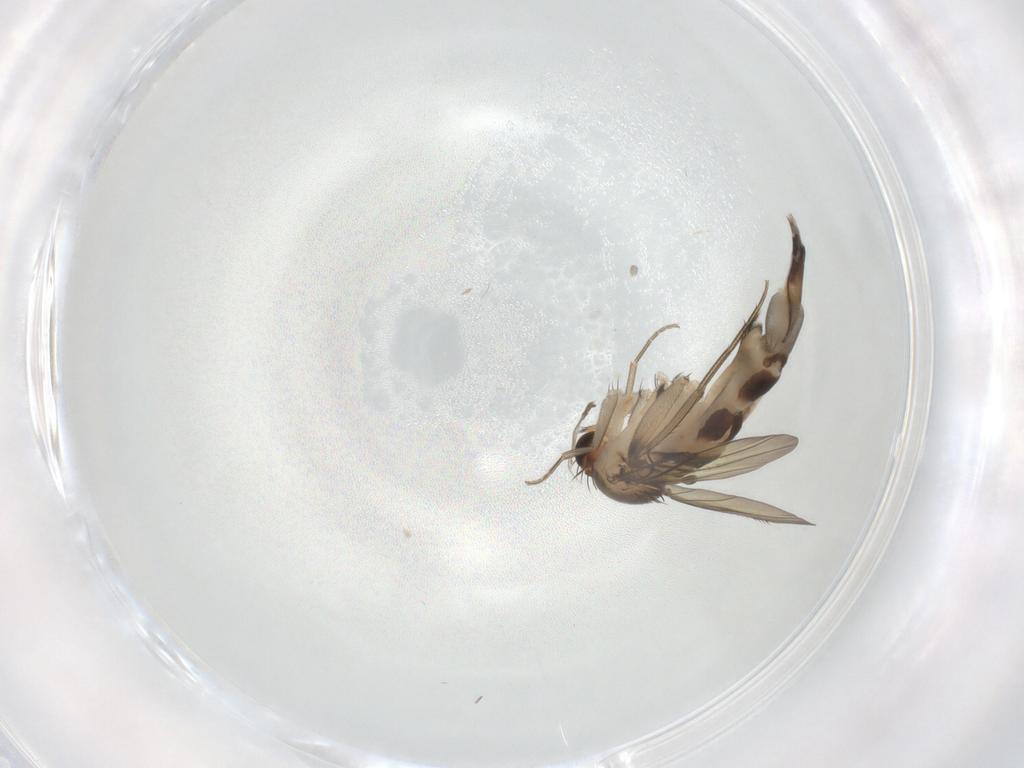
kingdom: Animalia
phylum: Arthropoda
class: Insecta
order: Diptera
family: Phoridae
